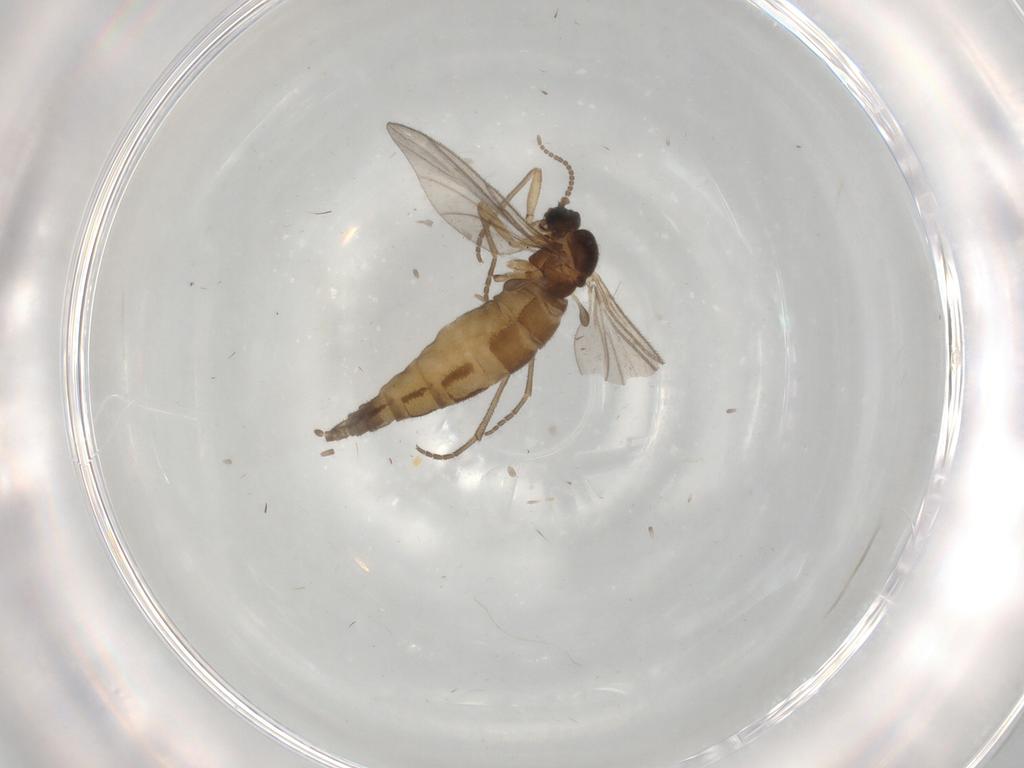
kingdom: Animalia
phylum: Arthropoda
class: Insecta
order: Diptera
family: Sciaridae
